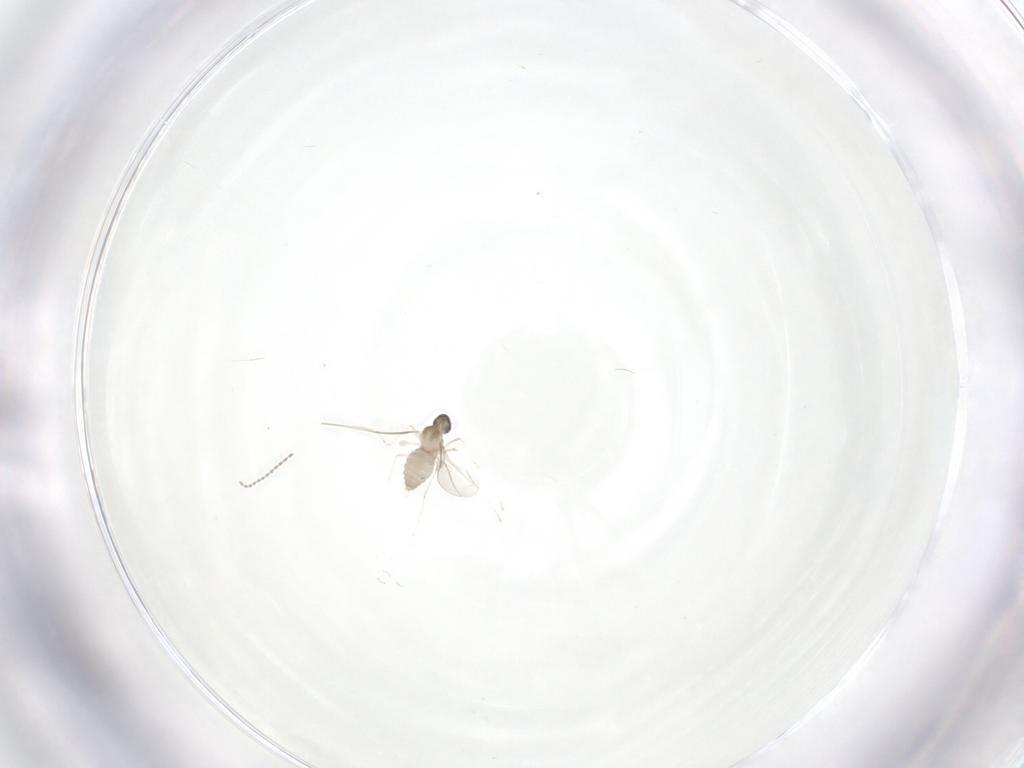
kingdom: Animalia
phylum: Arthropoda
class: Insecta
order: Diptera
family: Cecidomyiidae
